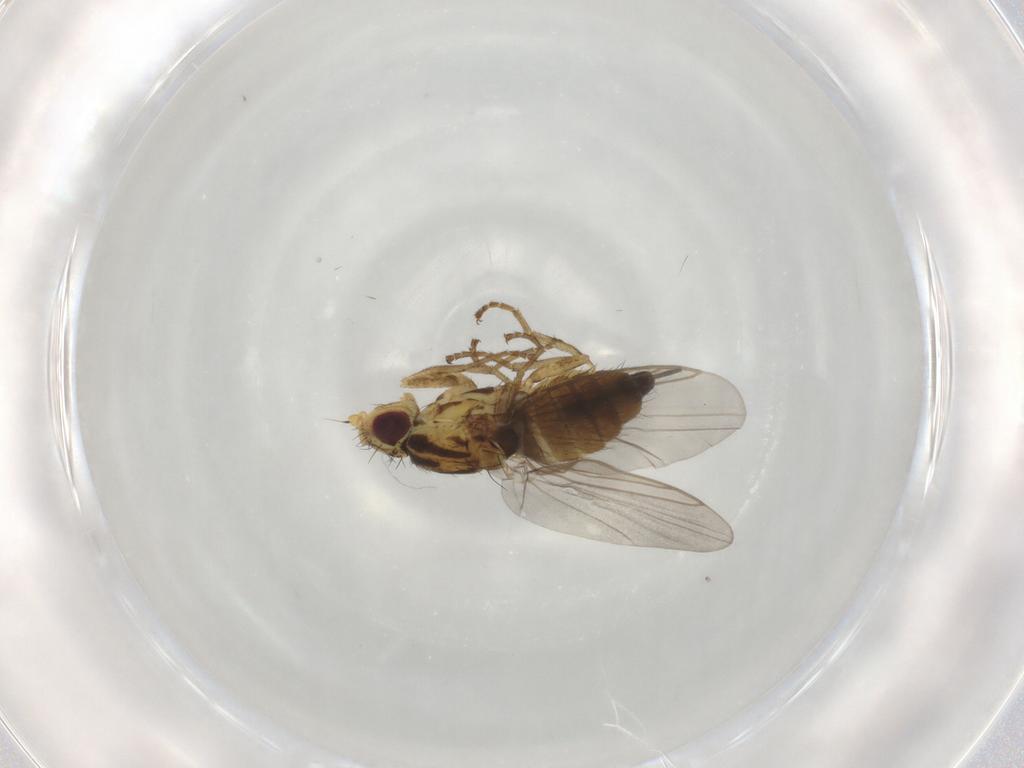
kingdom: Animalia
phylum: Arthropoda
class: Insecta
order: Diptera
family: Agromyzidae
